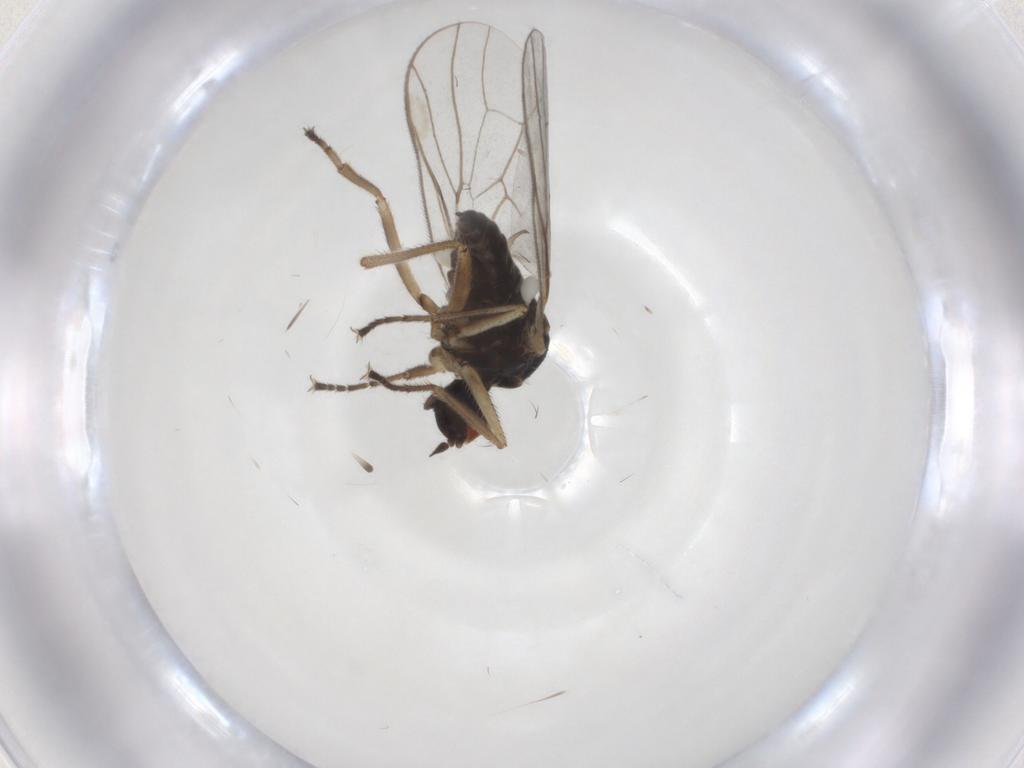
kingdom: Animalia
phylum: Arthropoda
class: Insecta
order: Diptera
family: Hybotidae
